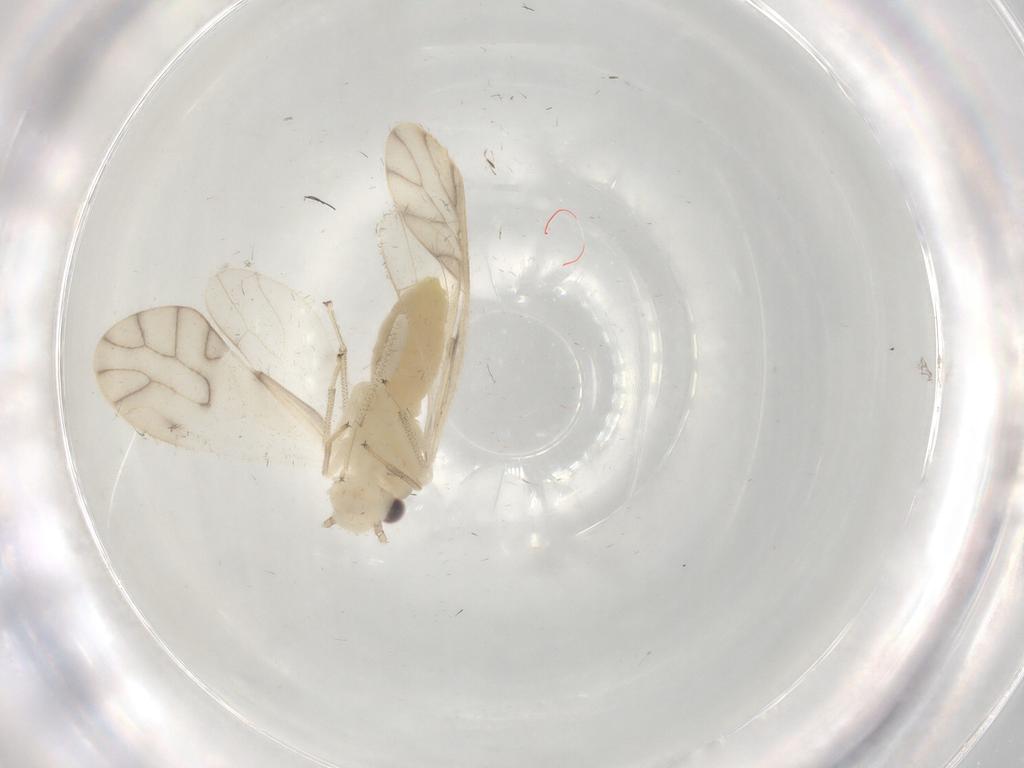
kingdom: Animalia
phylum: Arthropoda
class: Insecta
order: Psocodea
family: Caeciliusidae
